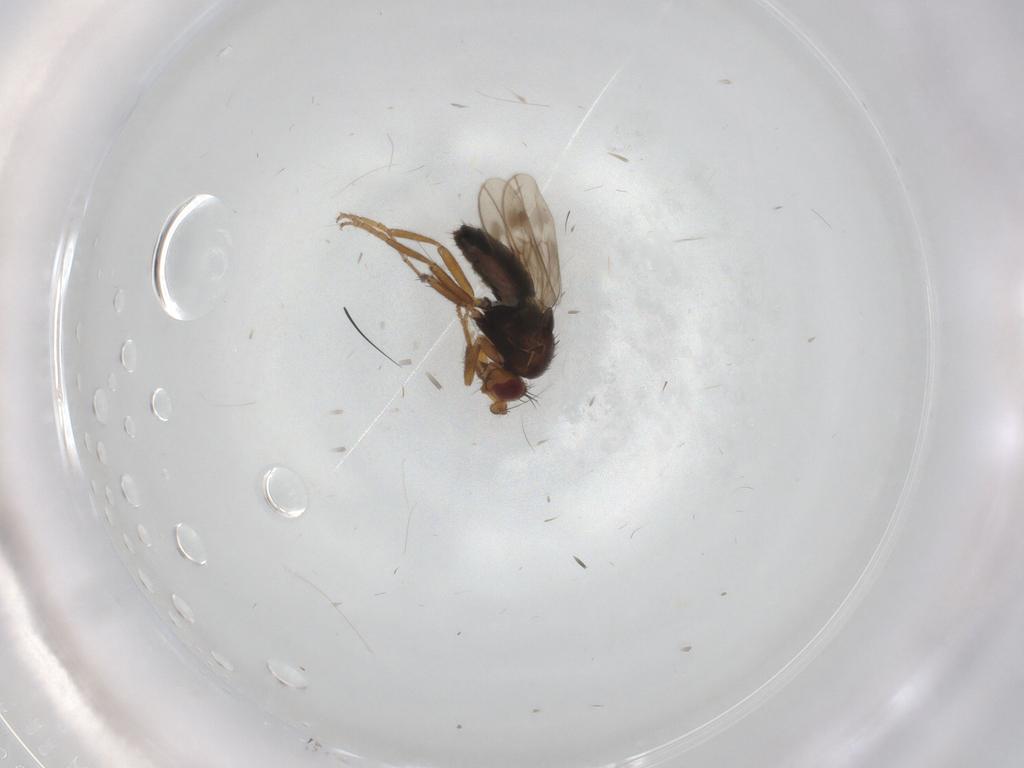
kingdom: Animalia
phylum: Arthropoda
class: Insecta
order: Diptera
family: Sphaeroceridae
